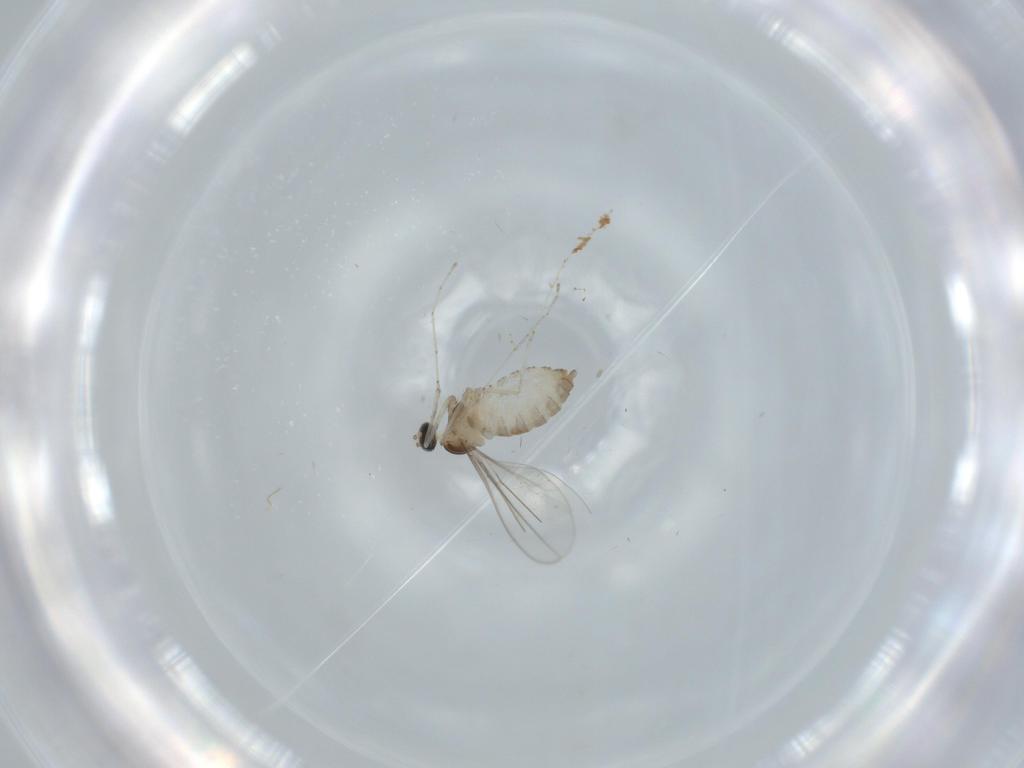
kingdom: Animalia
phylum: Arthropoda
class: Insecta
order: Diptera
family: Cecidomyiidae
